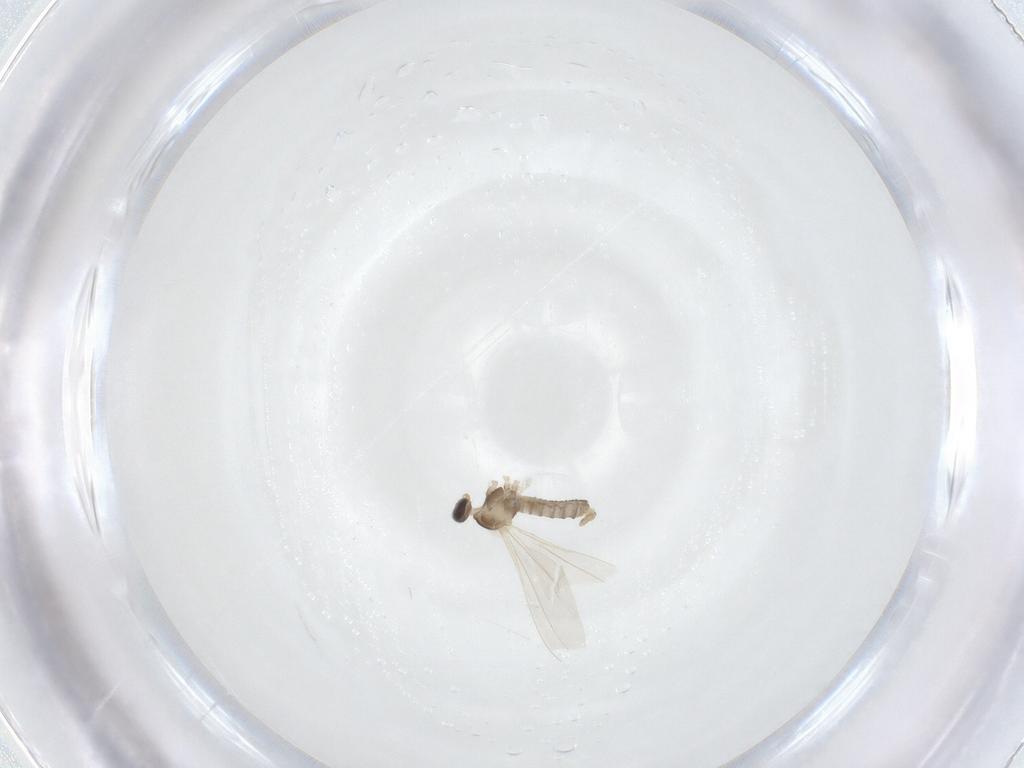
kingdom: Animalia
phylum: Arthropoda
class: Insecta
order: Diptera
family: Cecidomyiidae
